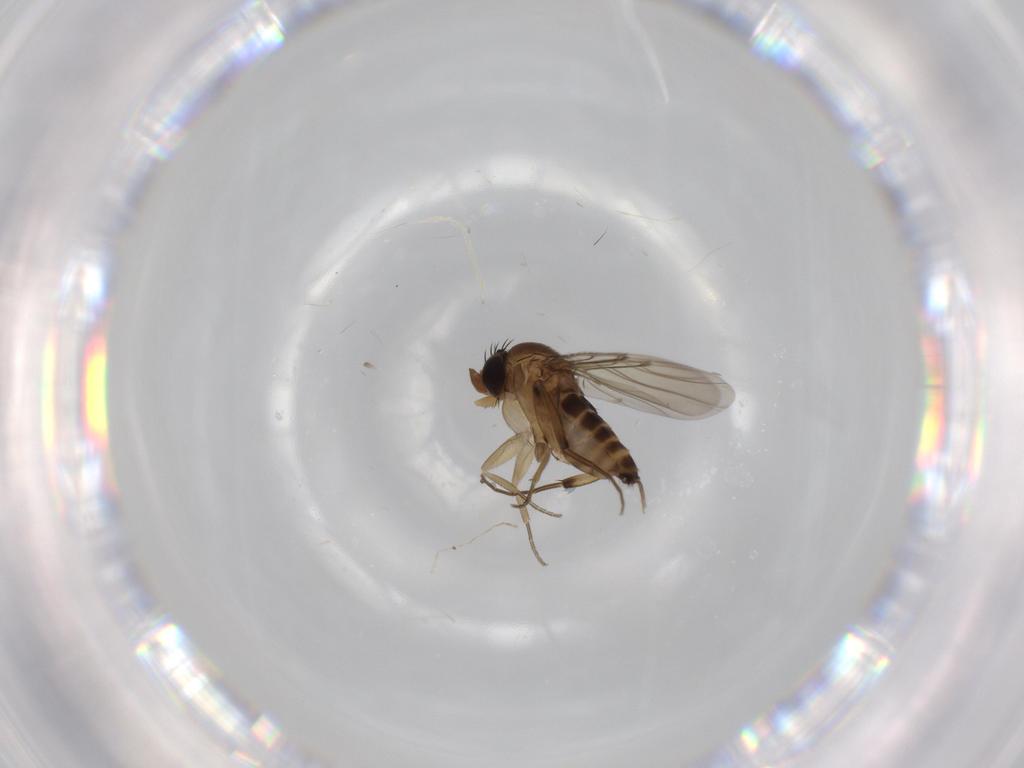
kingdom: Animalia
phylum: Arthropoda
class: Insecta
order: Diptera
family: Phoridae
